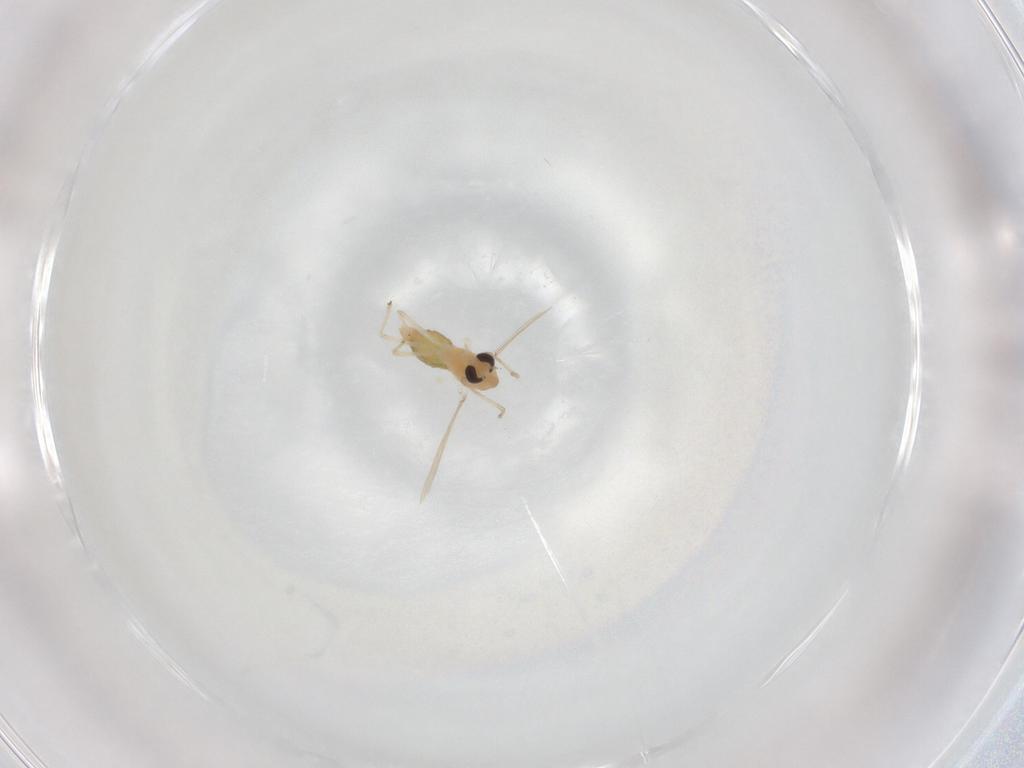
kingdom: Animalia
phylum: Arthropoda
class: Insecta
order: Diptera
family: Chironomidae
